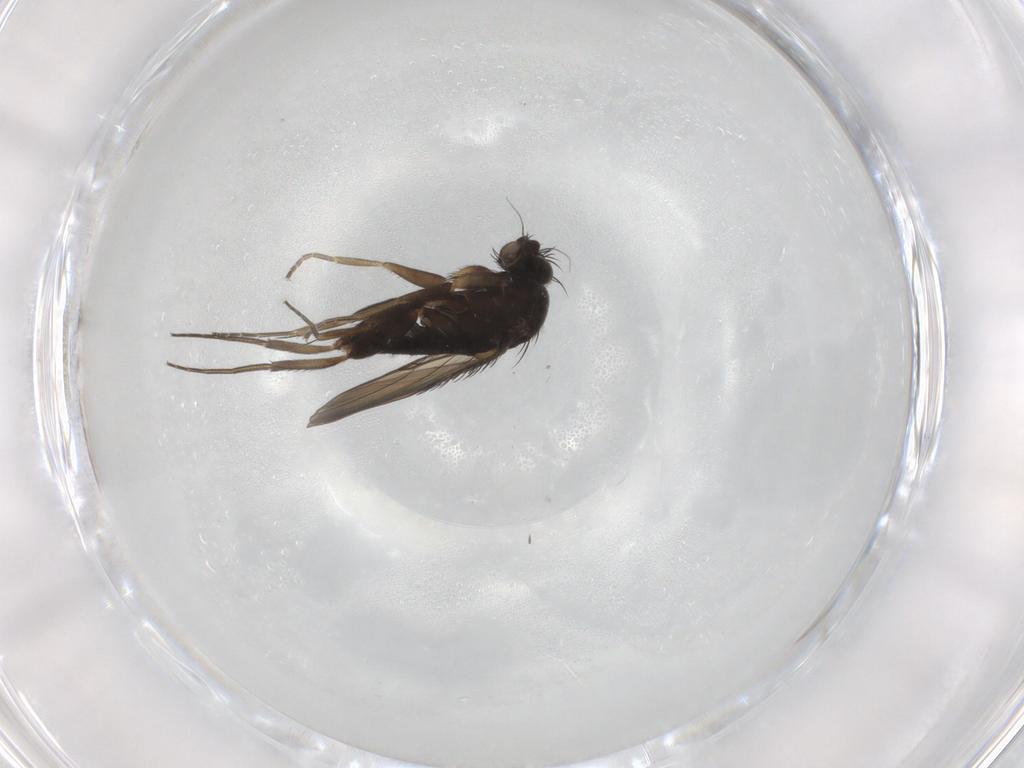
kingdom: Animalia
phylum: Arthropoda
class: Insecta
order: Diptera
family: Phoridae
